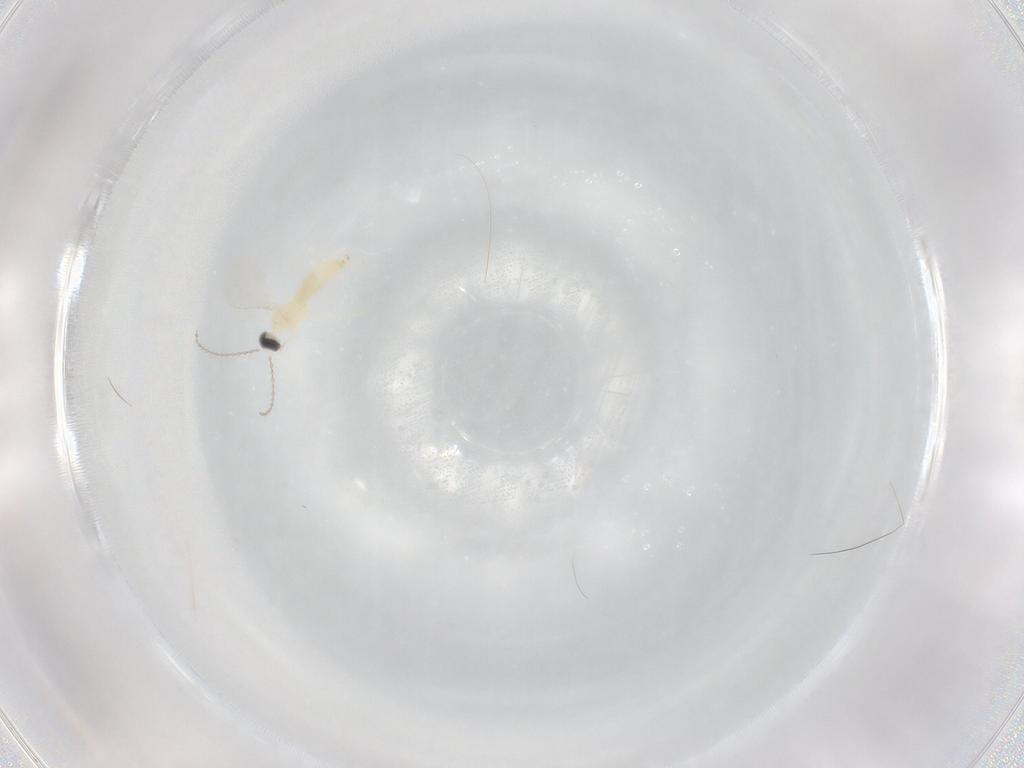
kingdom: Animalia
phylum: Arthropoda
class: Insecta
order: Diptera
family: Cecidomyiidae
